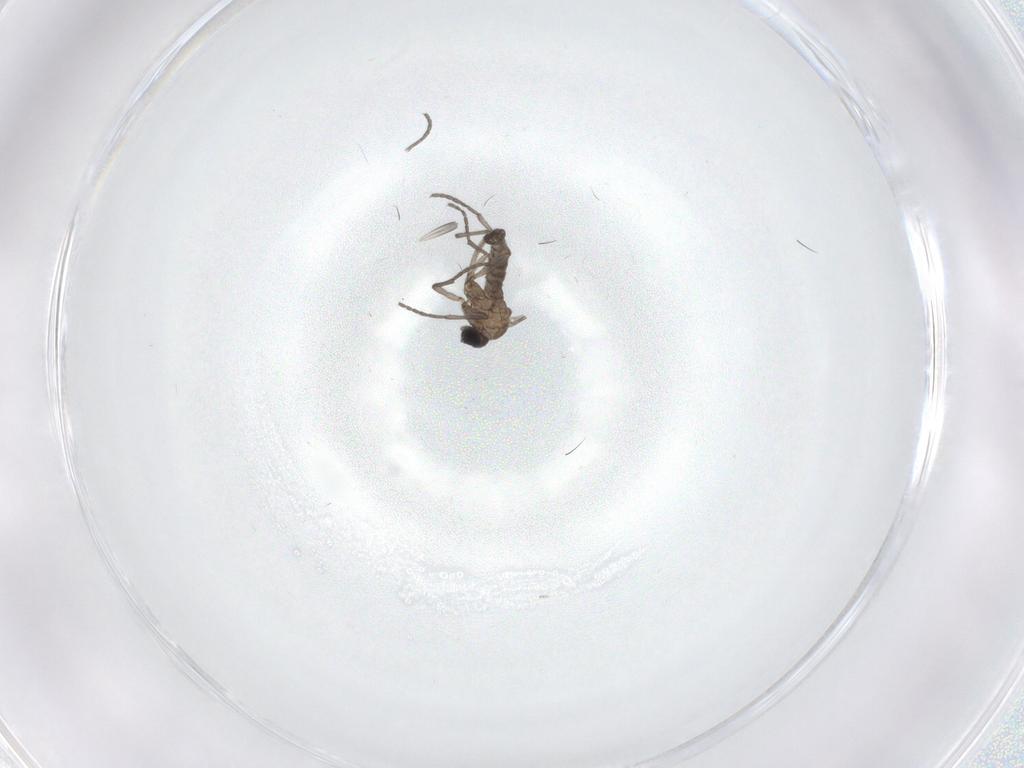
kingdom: Animalia
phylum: Arthropoda
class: Insecta
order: Diptera
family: Sciaridae
